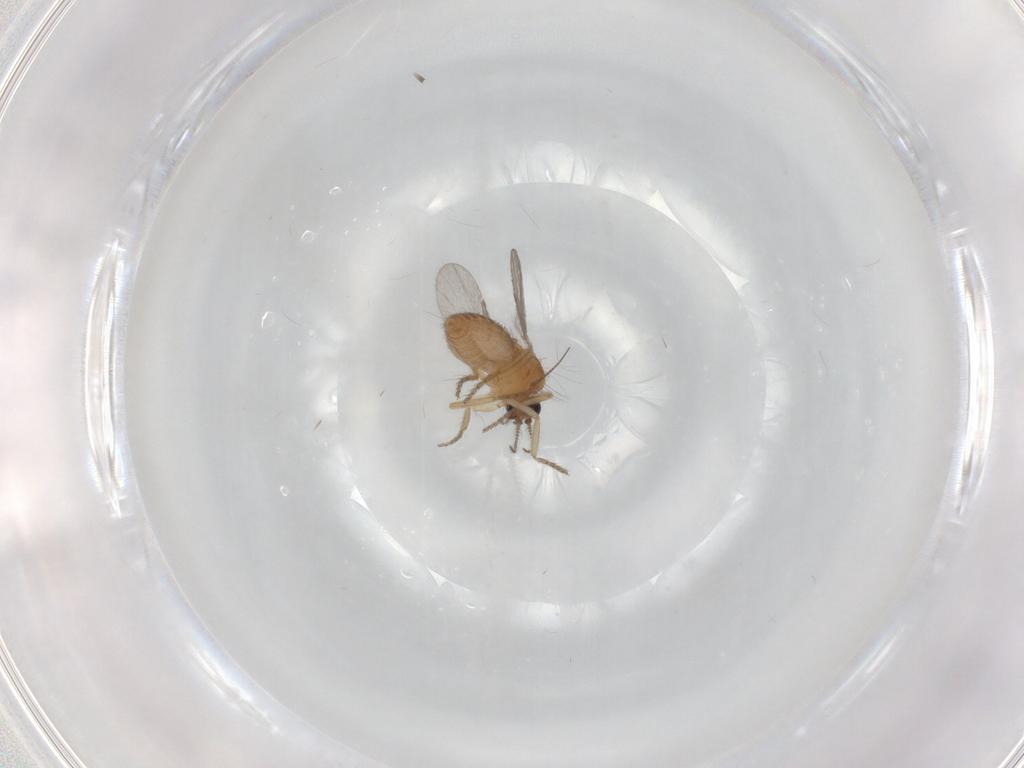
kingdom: Animalia
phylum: Arthropoda
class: Insecta
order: Diptera
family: Ceratopogonidae
